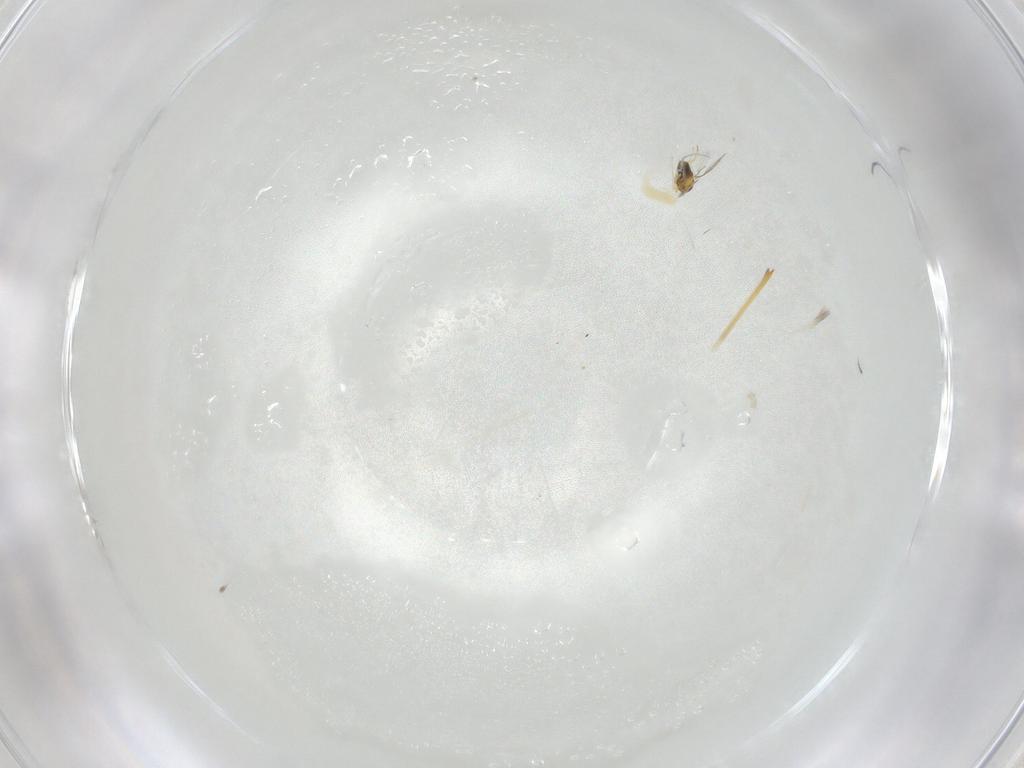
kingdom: Animalia
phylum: Arthropoda
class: Insecta
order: Hymenoptera
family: Aphelinidae
